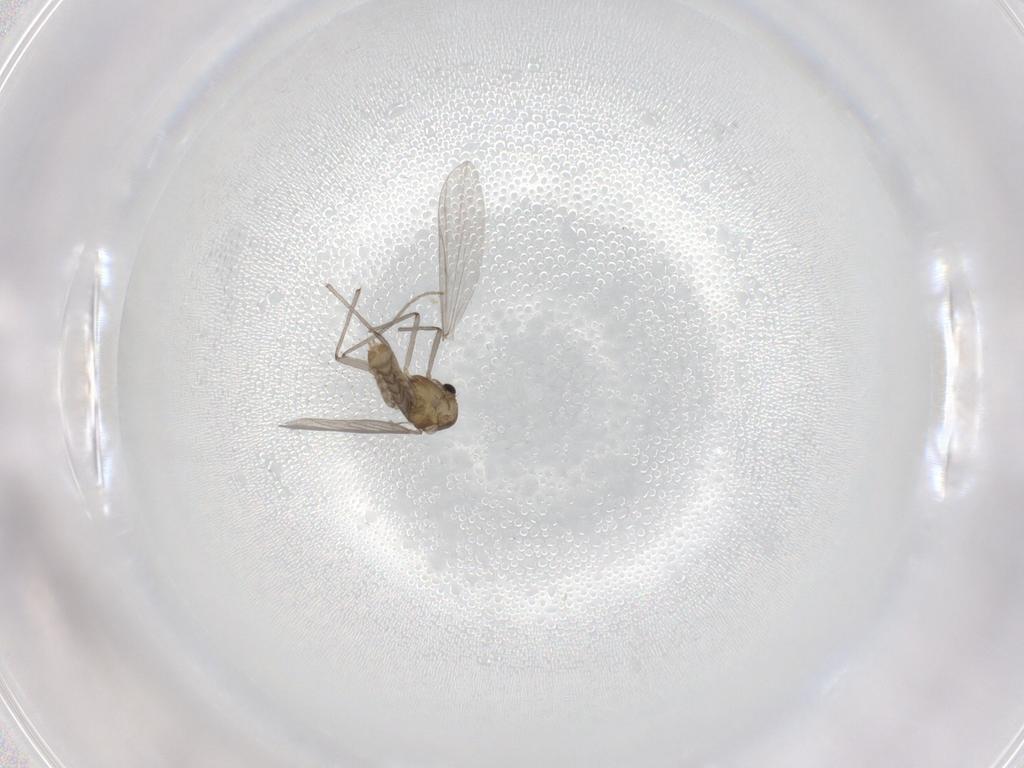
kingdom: Animalia
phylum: Arthropoda
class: Insecta
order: Diptera
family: Chironomidae
